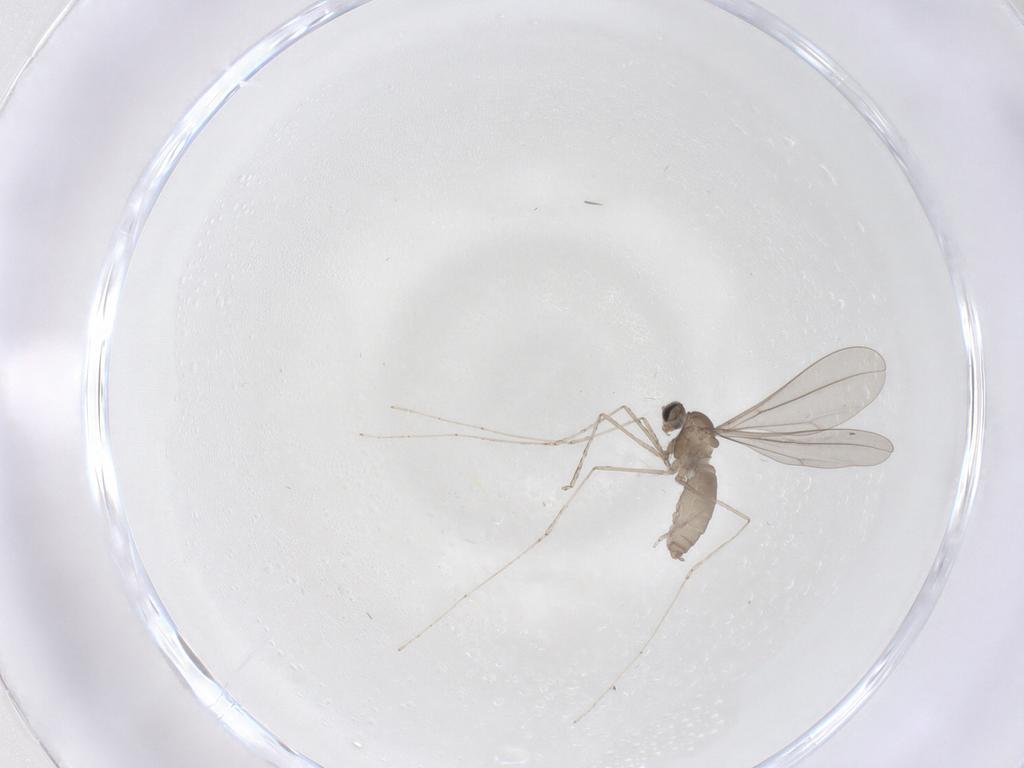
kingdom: Animalia
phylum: Arthropoda
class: Insecta
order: Diptera
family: Cecidomyiidae
